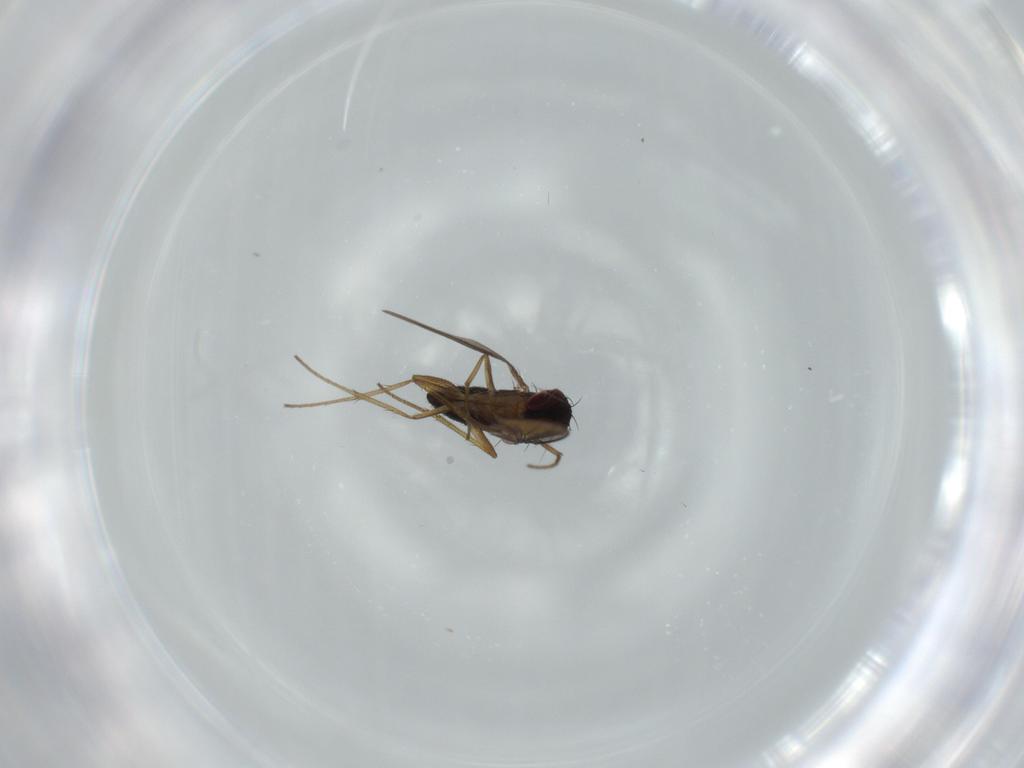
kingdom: Animalia
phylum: Arthropoda
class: Insecta
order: Diptera
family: Dolichopodidae
